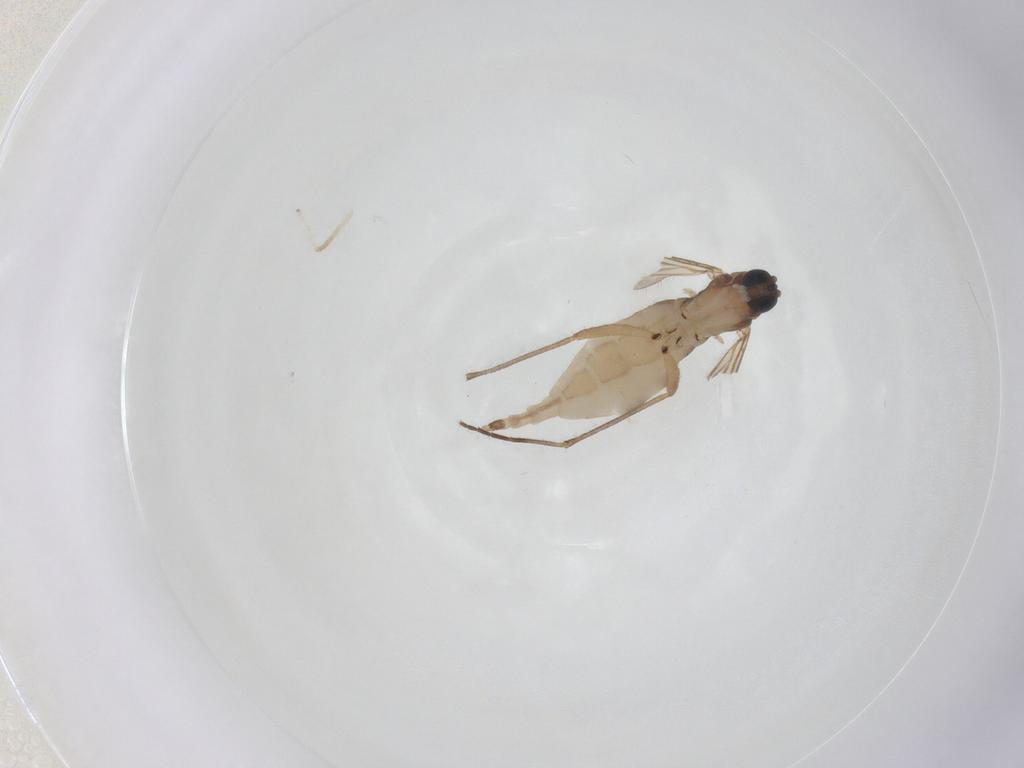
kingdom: Animalia
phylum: Arthropoda
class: Insecta
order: Diptera
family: Sciaridae
